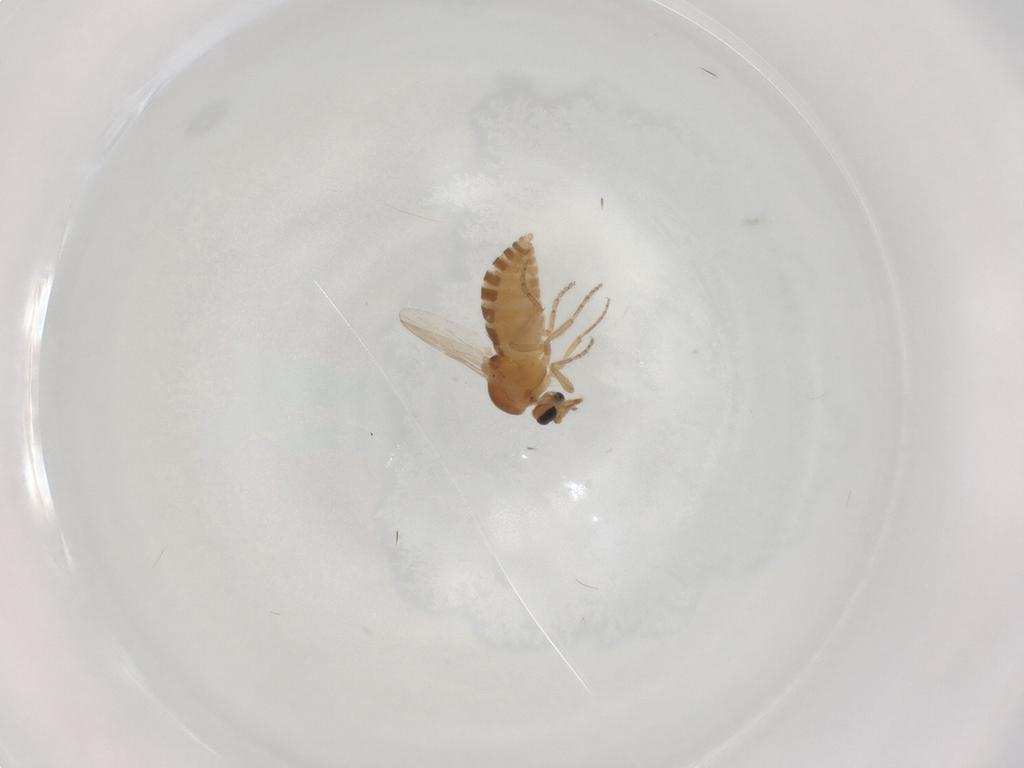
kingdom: Animalia
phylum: Arthropoda
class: Insecta
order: Diptera
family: Ceratopogonidae
